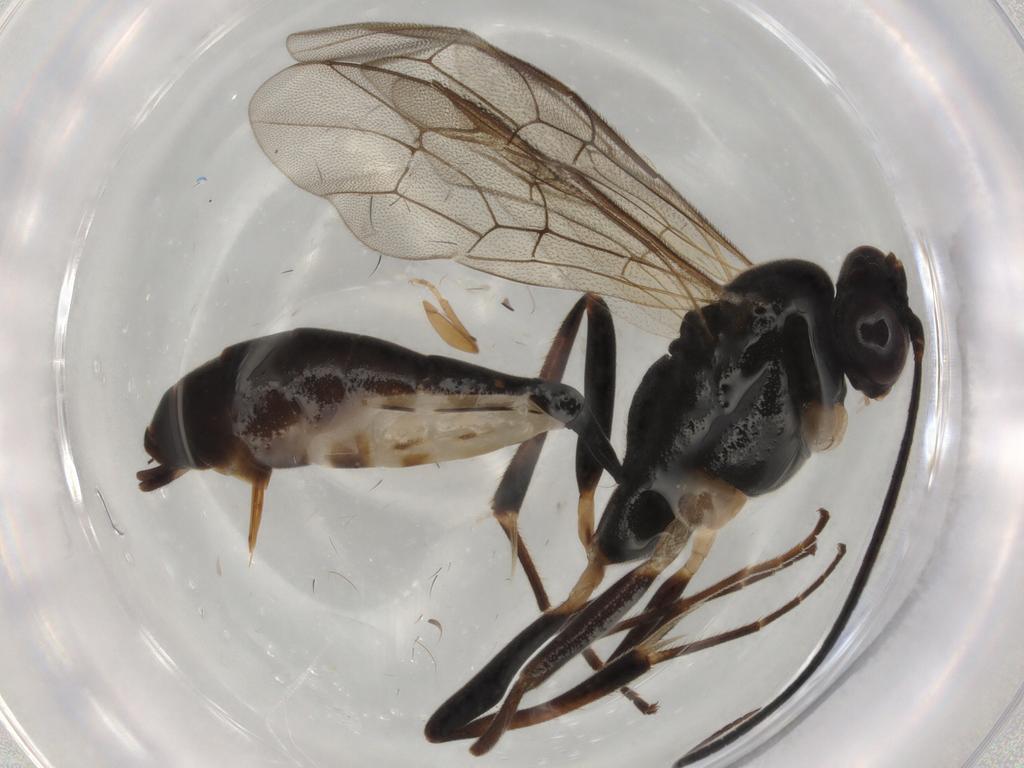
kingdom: Animalia
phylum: Arthropoda
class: Insecta
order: Hymenoptera
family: Ichneumonidae
